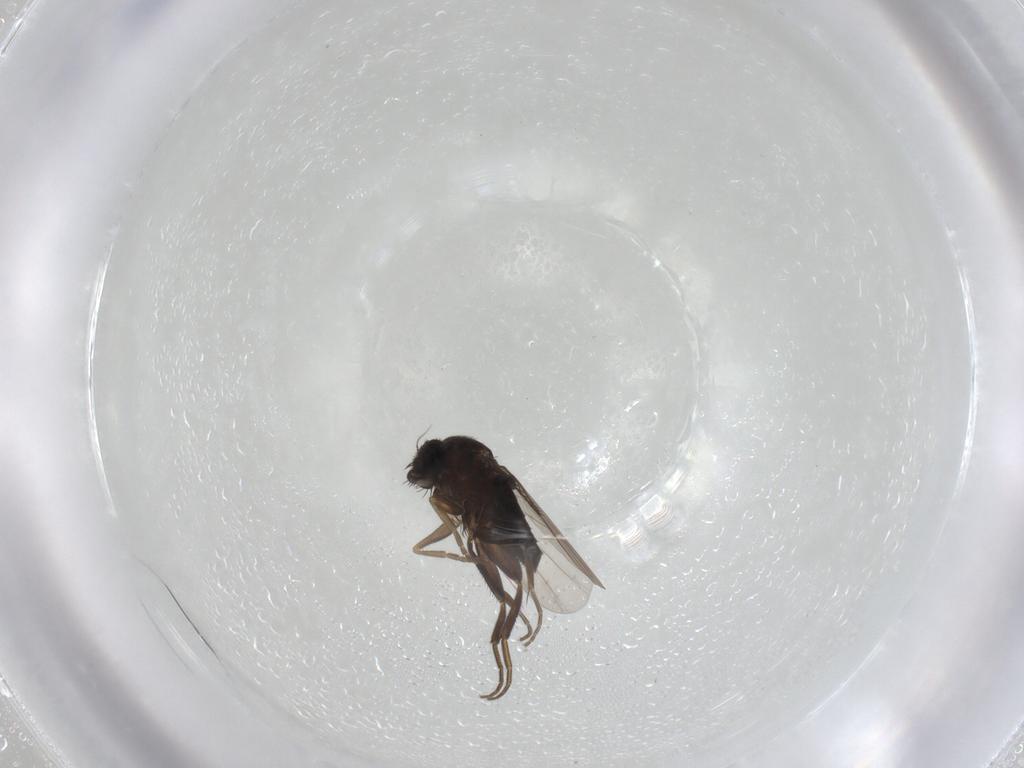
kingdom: Animalia
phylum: Arthropoda
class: Insecta
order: Diptera
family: Phoridae
